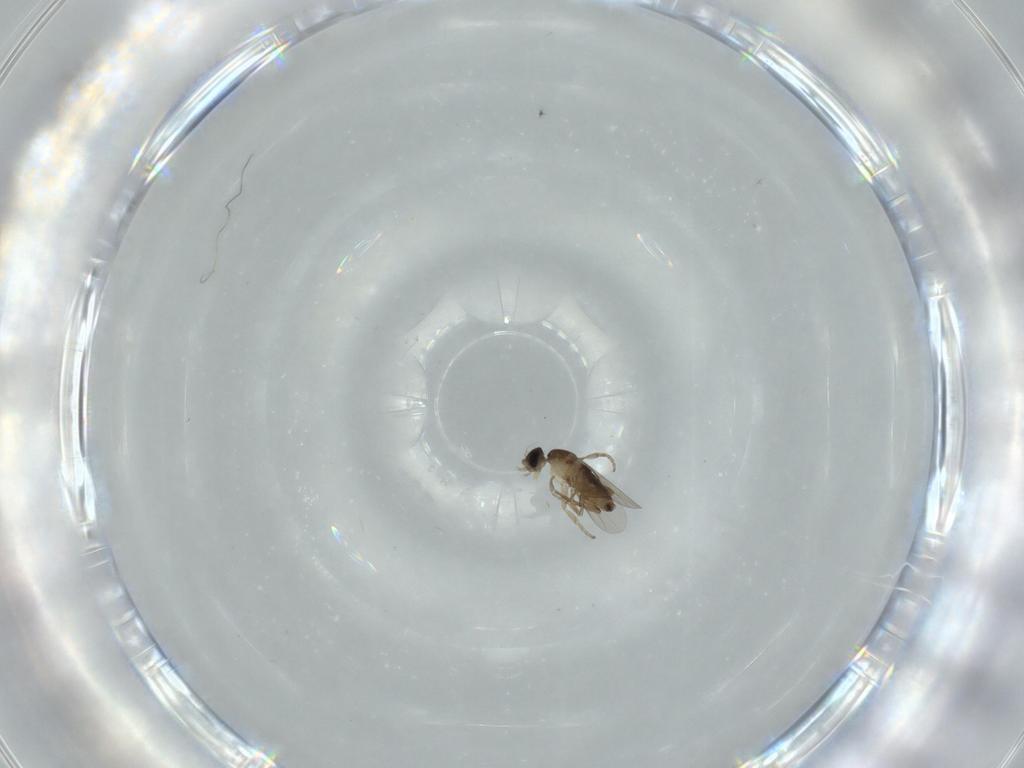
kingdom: Animalia
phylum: Arthropoda
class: Insecta
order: Diptera
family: Phoridae
